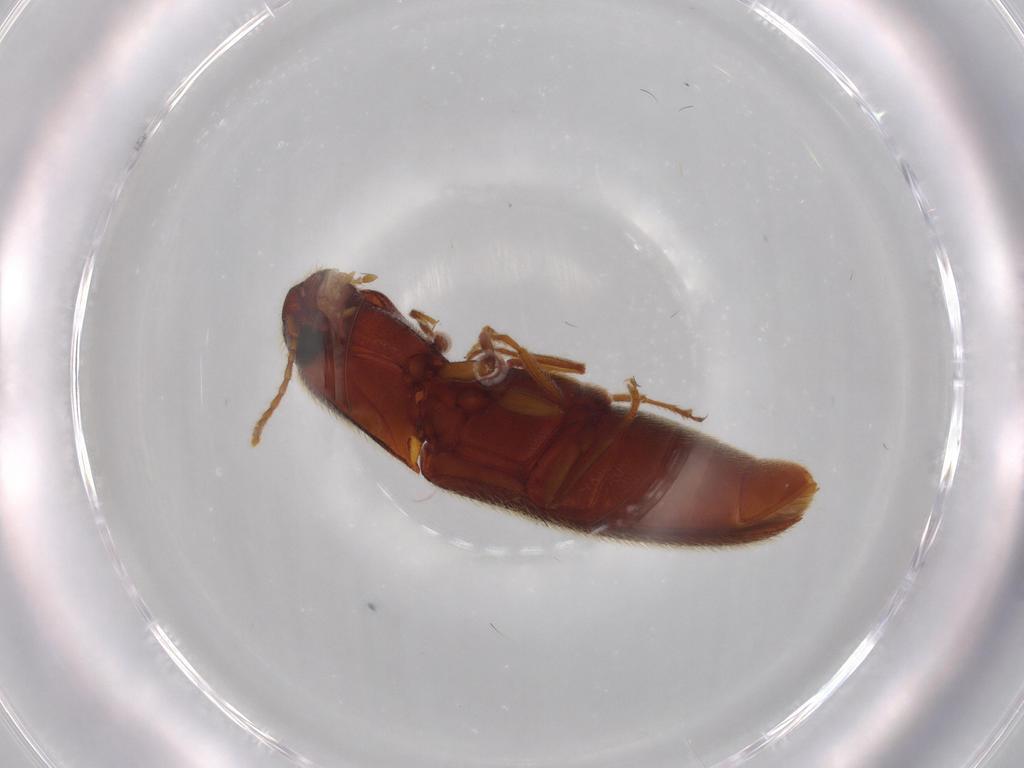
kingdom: Animalia
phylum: Arthropoda
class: Insecta
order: Coleoptera
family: Elateridae
